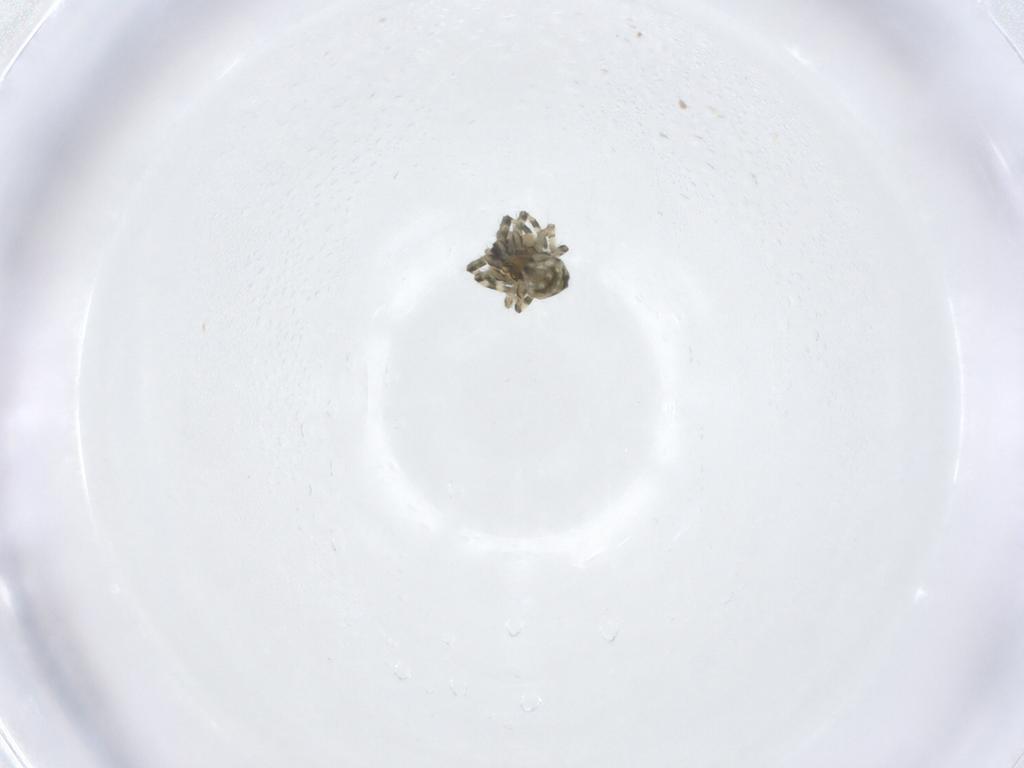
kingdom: Animalia
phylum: Arthropoda
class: Arachnida
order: Araneae
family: Tetragnathidae
